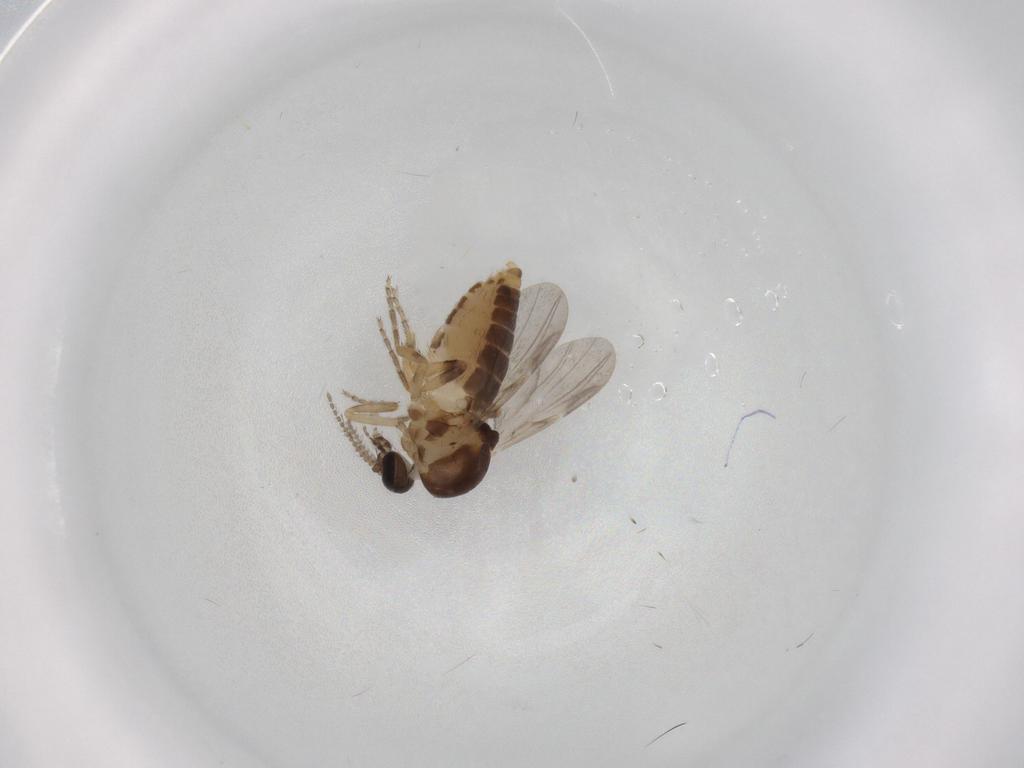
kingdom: Animalia
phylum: Arthropoda
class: Insecta
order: Diptera
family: Ceratopogonidae
